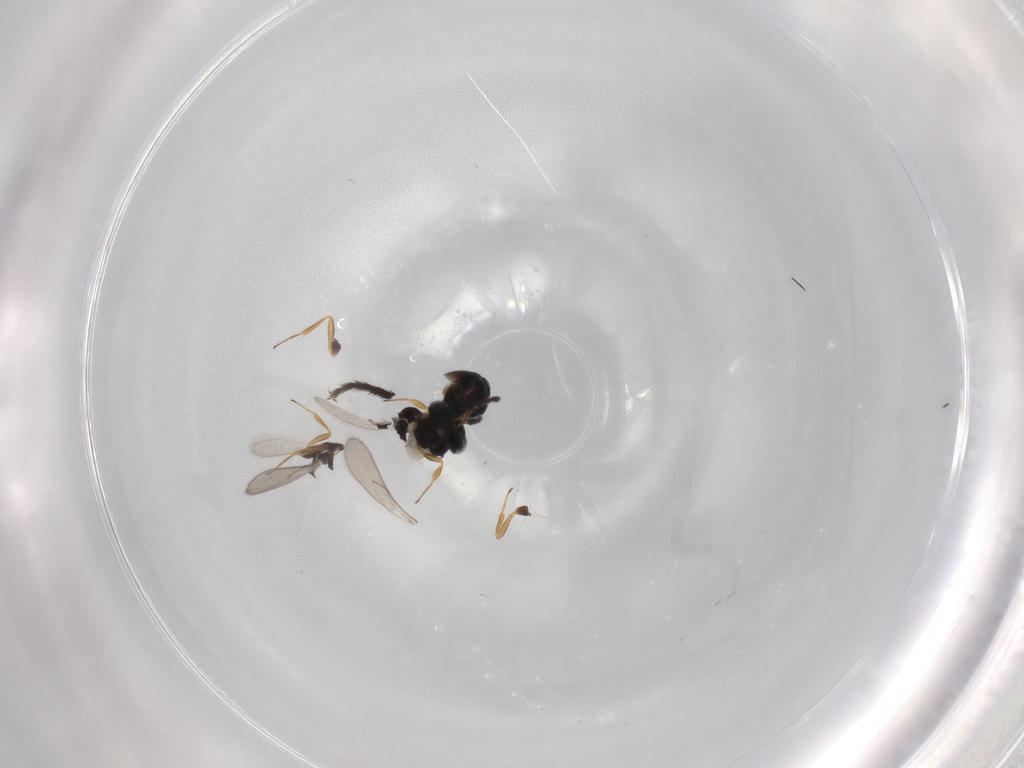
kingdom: Animalia
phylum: Arthropoda
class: Insecta
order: Hymenoptera
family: Scelionidae
